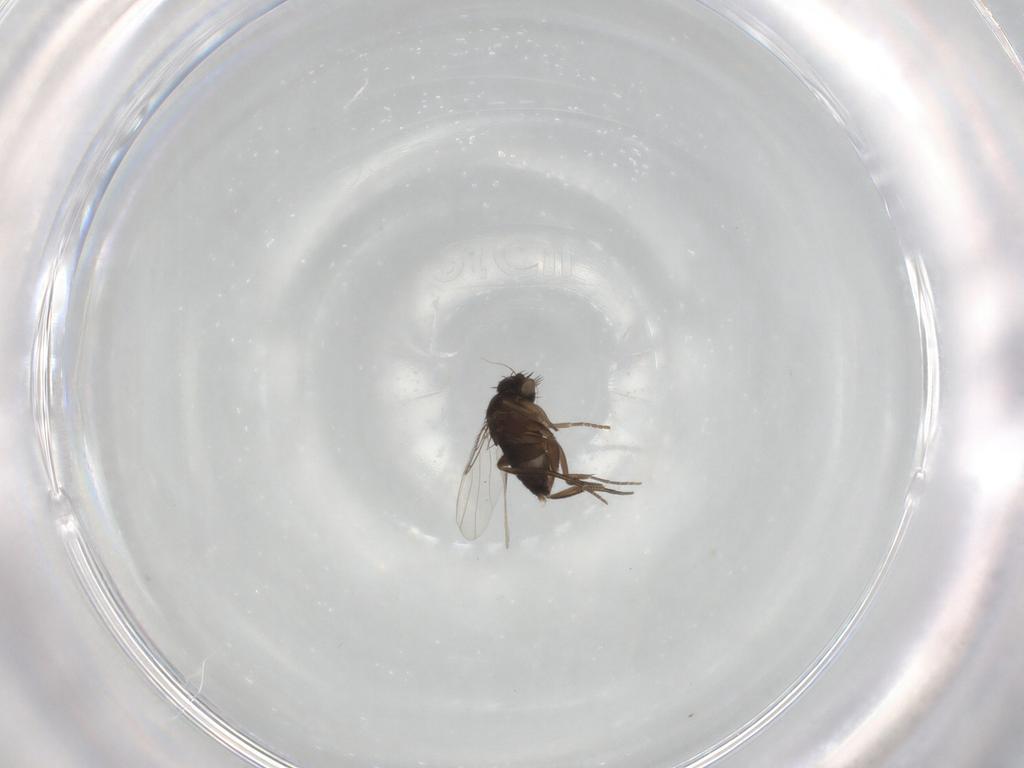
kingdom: Animalia
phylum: Arthropoda
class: Insecta
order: Diptera
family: Phoridae
